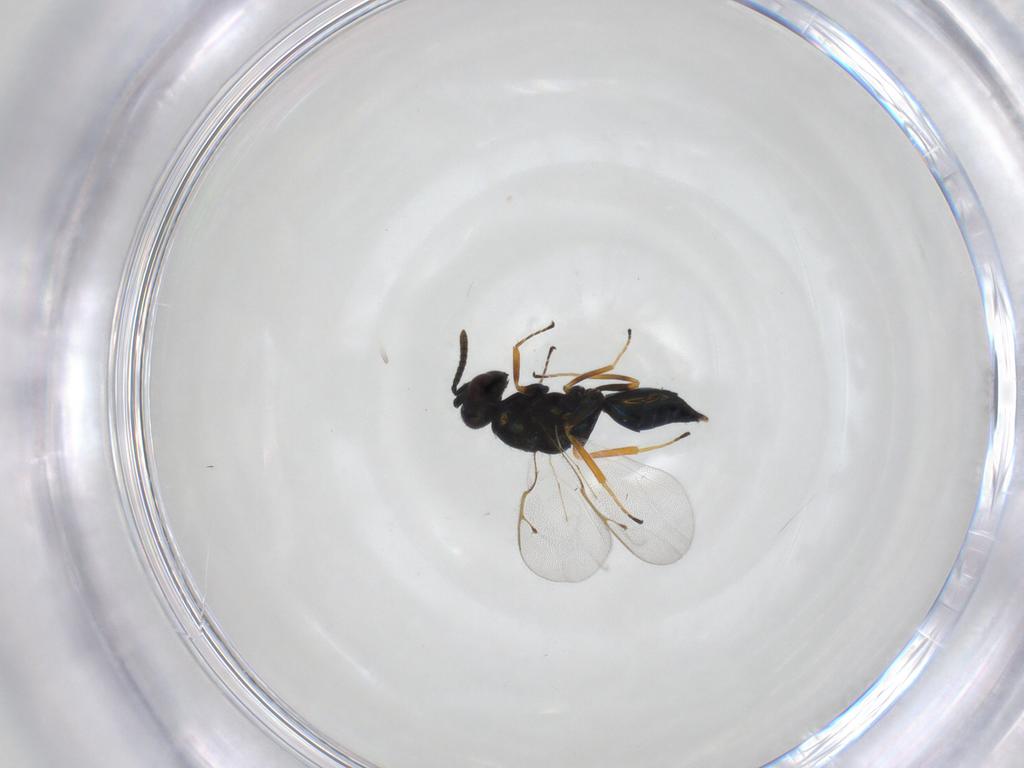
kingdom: Animalia
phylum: Arthropoda
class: Insecta
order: Hymenoptera
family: Pteromalidae
